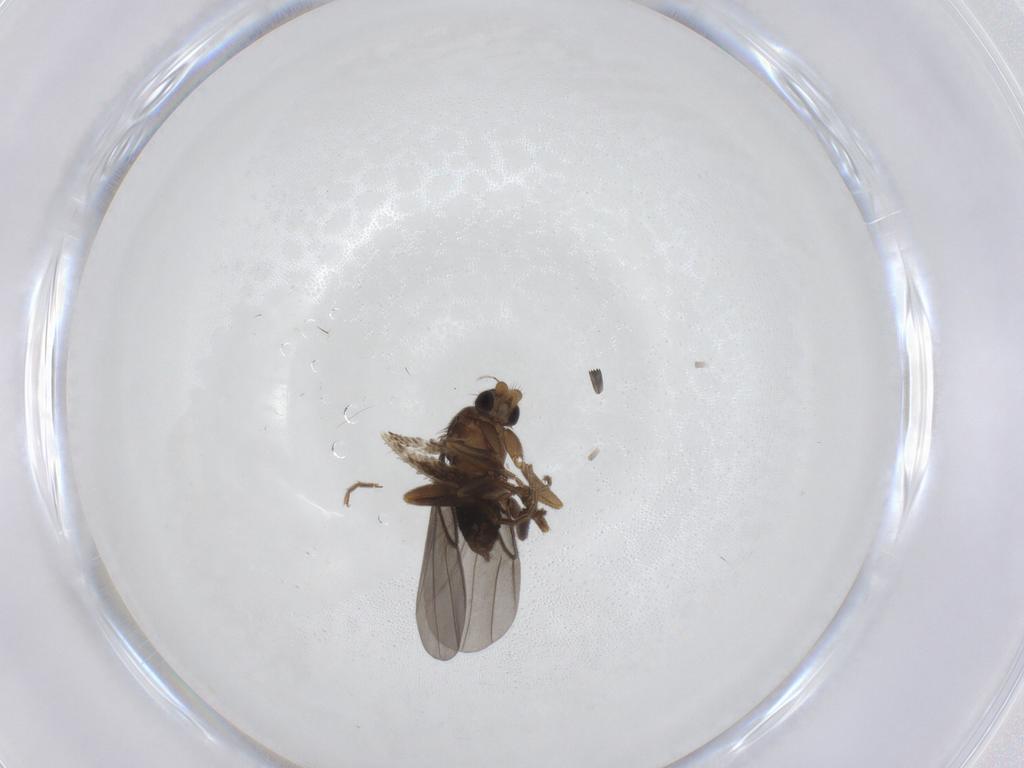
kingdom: Animalia
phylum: Arthropoda
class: Insecta
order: Diptera
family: Phoridae
